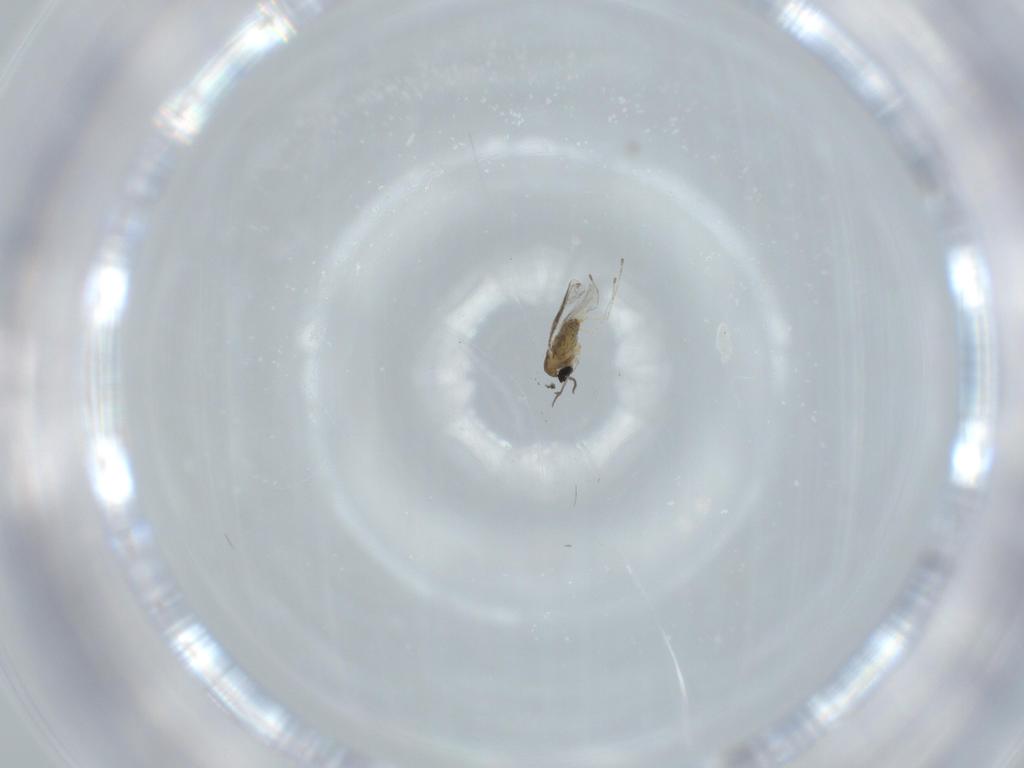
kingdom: Animalia
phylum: Arthropoda
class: Insecta
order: Diptera
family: Cecidomyiidae
